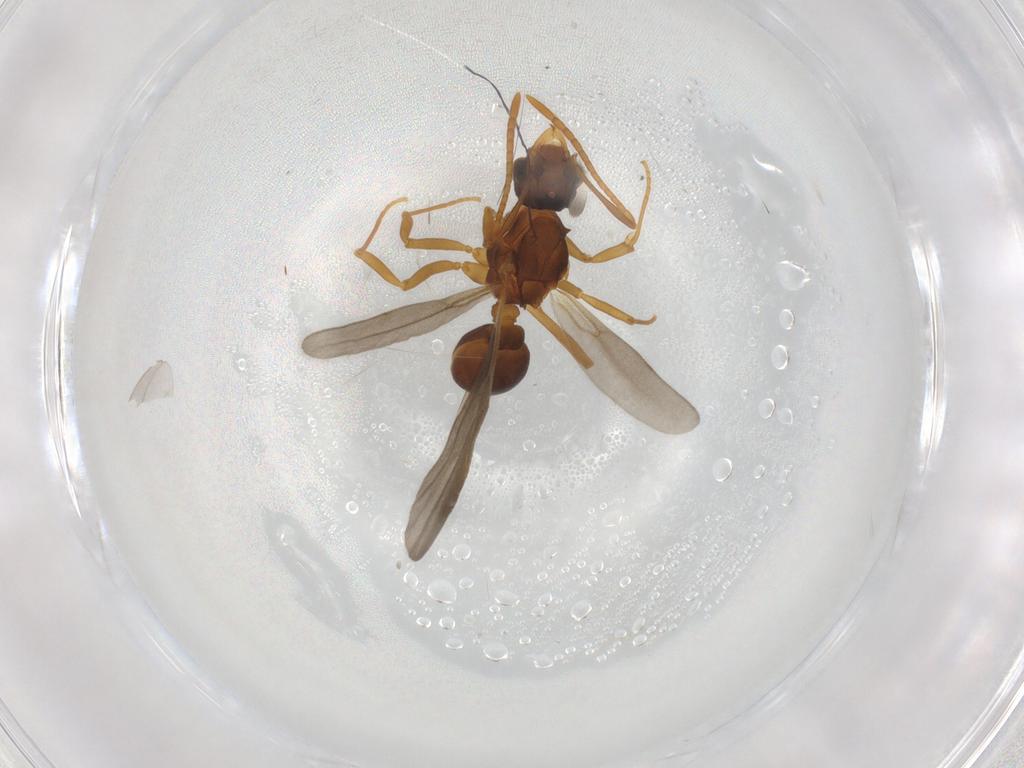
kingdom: Animalia
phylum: Arthropoda
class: Insecta
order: Hymenoptera
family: Formicidae
